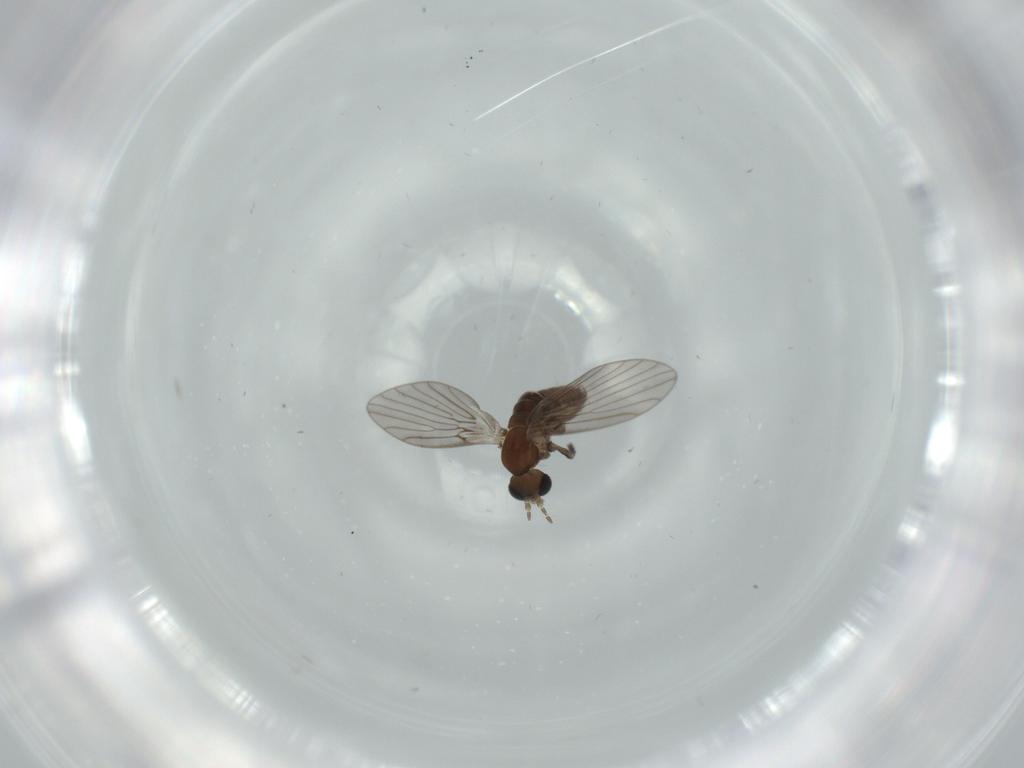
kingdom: Animalia
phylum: Arthropoda
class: Insecta
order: Diptera
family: Psychodidae
